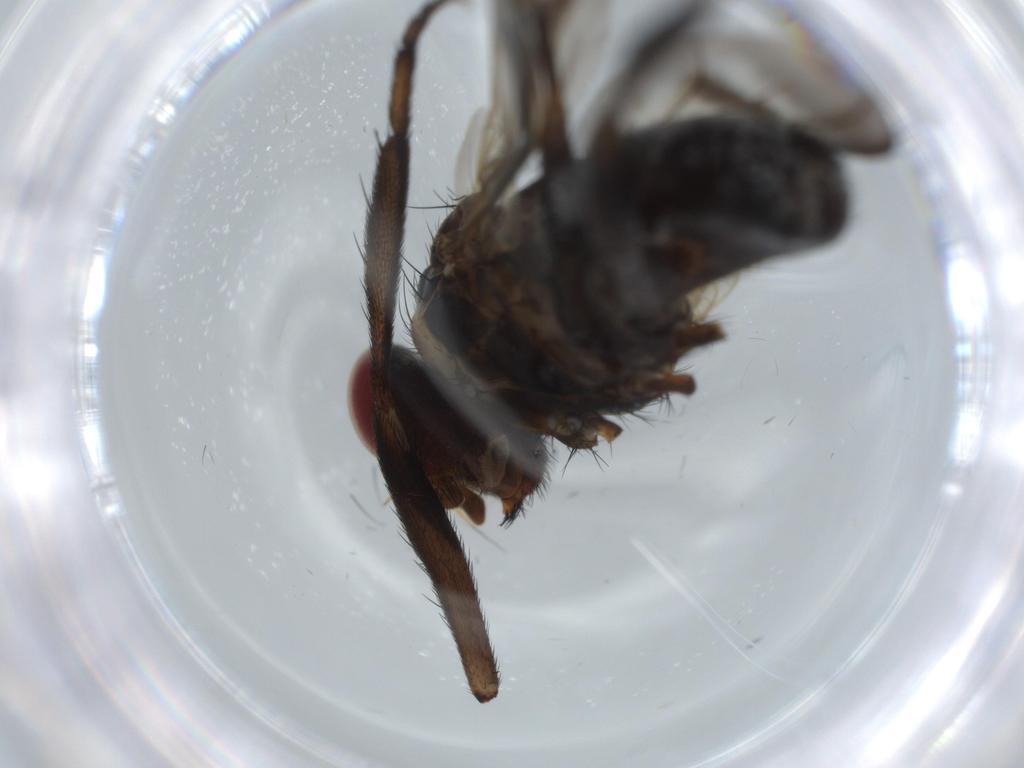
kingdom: Animalia
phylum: Arthropoda
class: Insecta
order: Diptera
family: Calliphoridae
